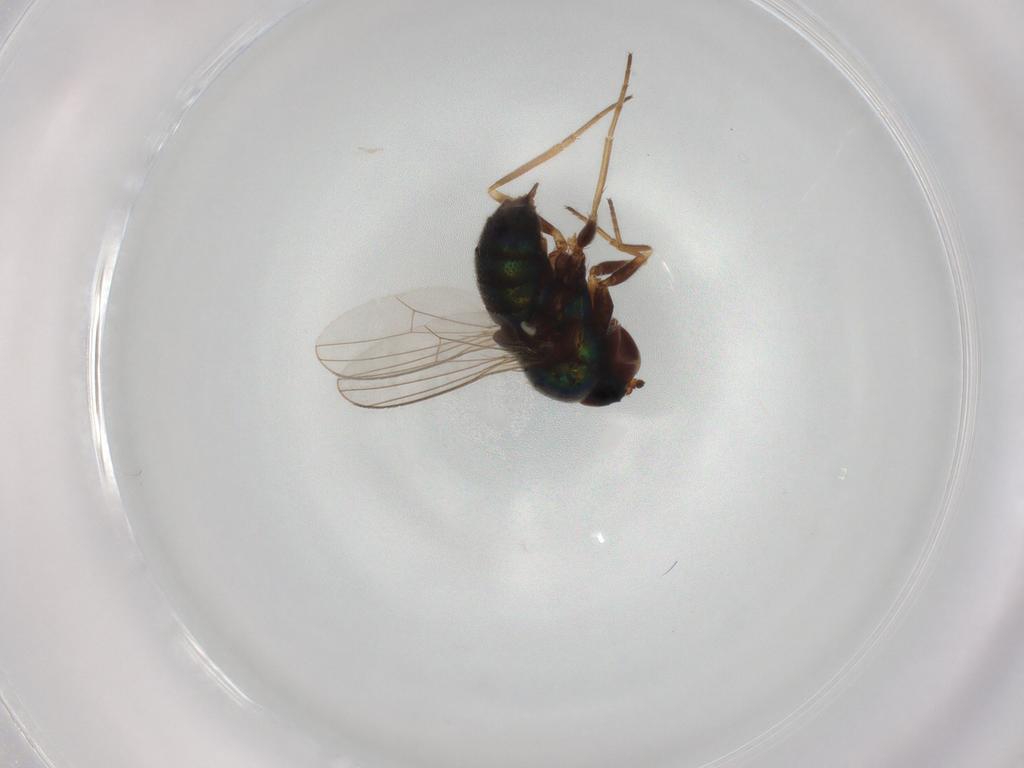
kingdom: Animalia
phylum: Arthropoda
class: Insecta
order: Diptera
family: Dolichopodidae
